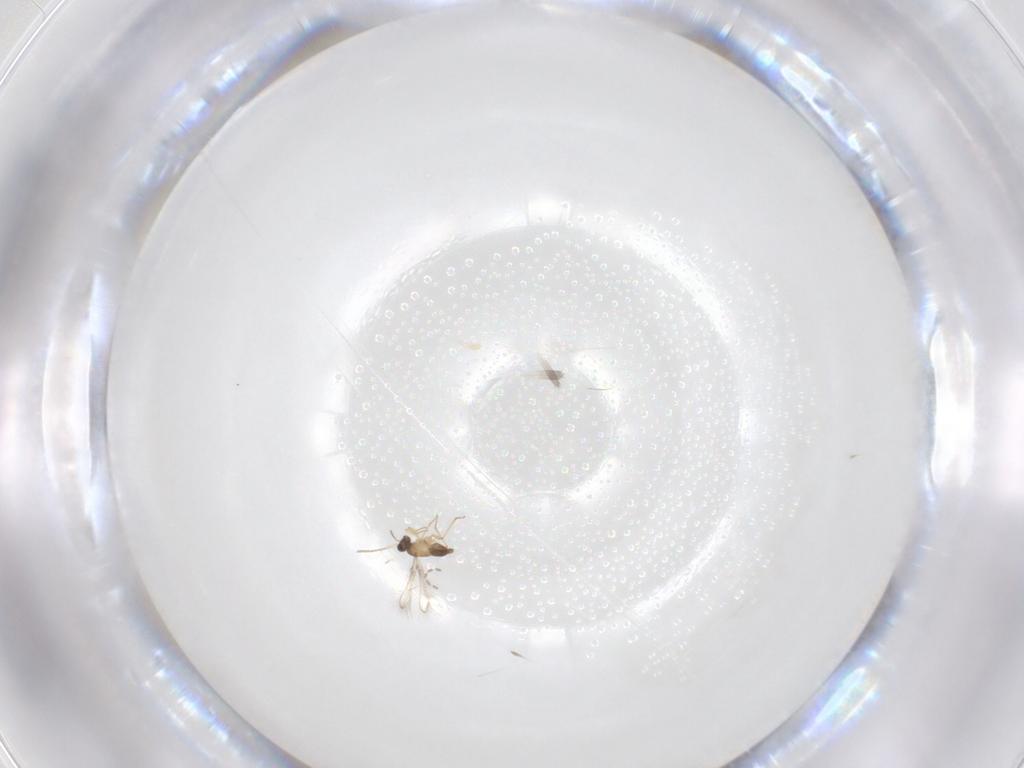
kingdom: Animalia
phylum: Arthropoda
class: Insecta
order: Hymenoptera
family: Mymaridae
